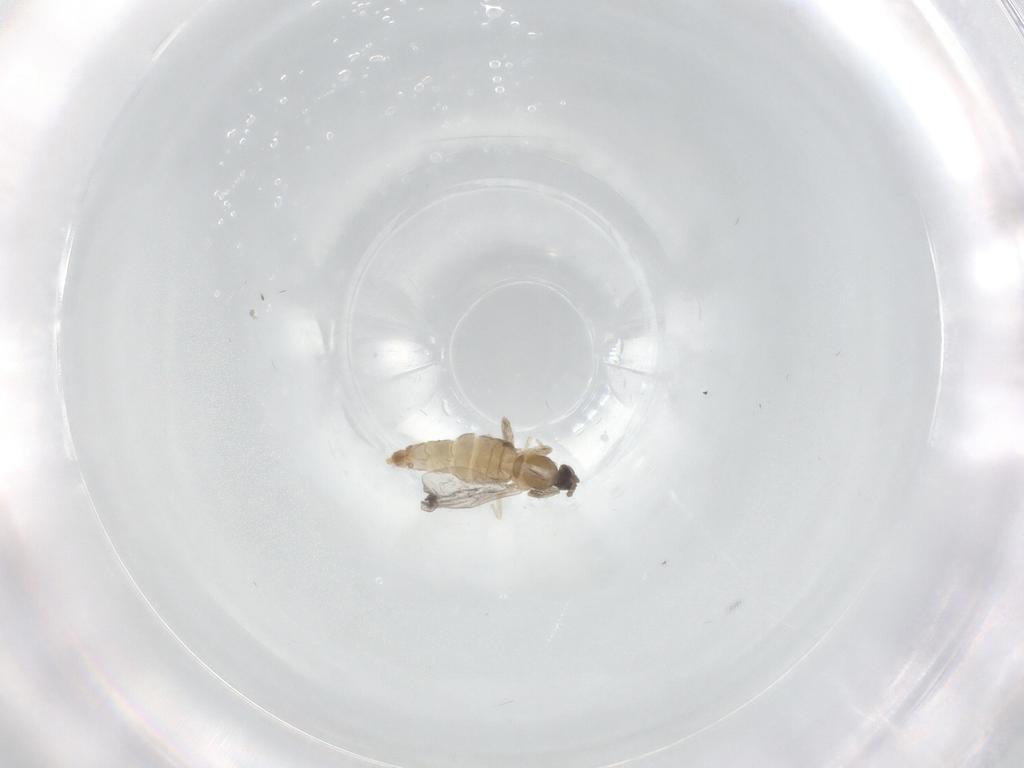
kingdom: Animalia
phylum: Arthropoda
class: Insecta
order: Diptera
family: Cecidomyiidae
